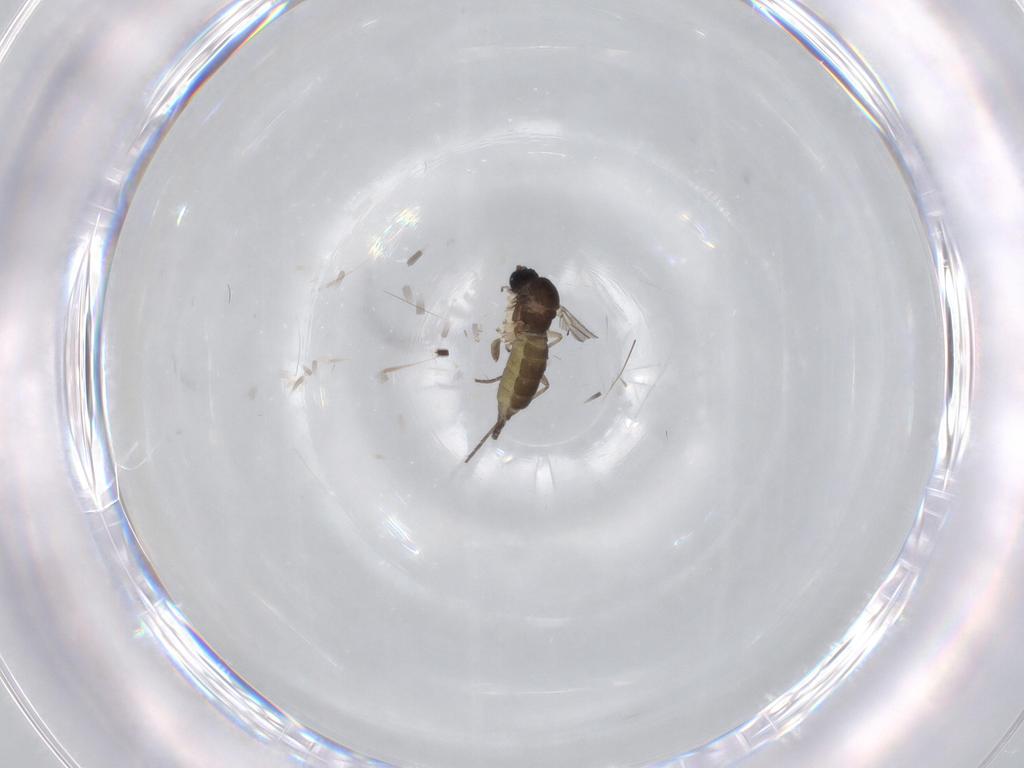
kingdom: Animalia
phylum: Arthropoda
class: Insecta
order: Diptera
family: Sciaridae
